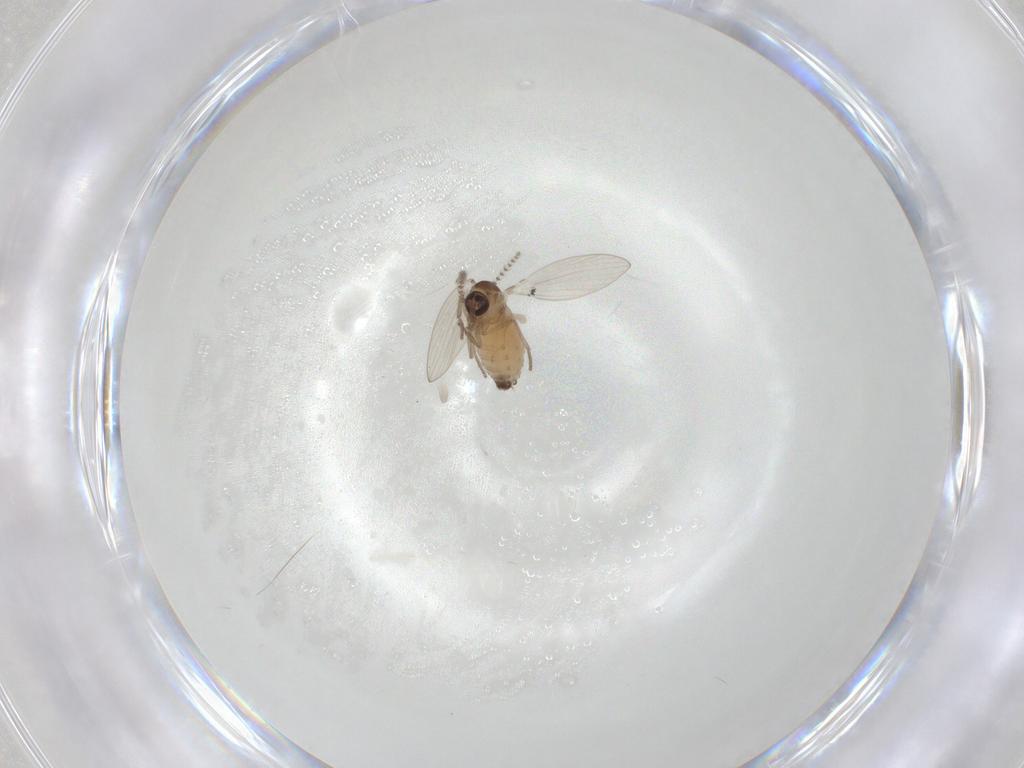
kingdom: Animalia
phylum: Arthropoda
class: Insecta
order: Diptera
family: Psychodidae
